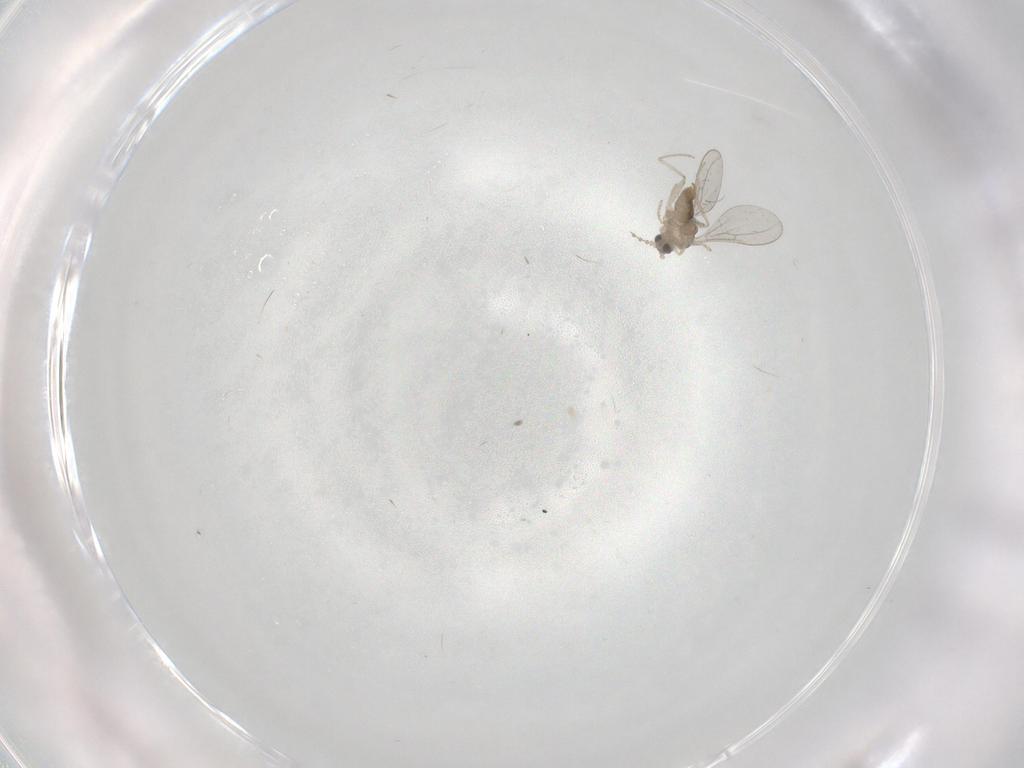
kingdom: Animalia
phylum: Arthropoda
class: Insecta
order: Diptera
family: Cecidomyiidae
